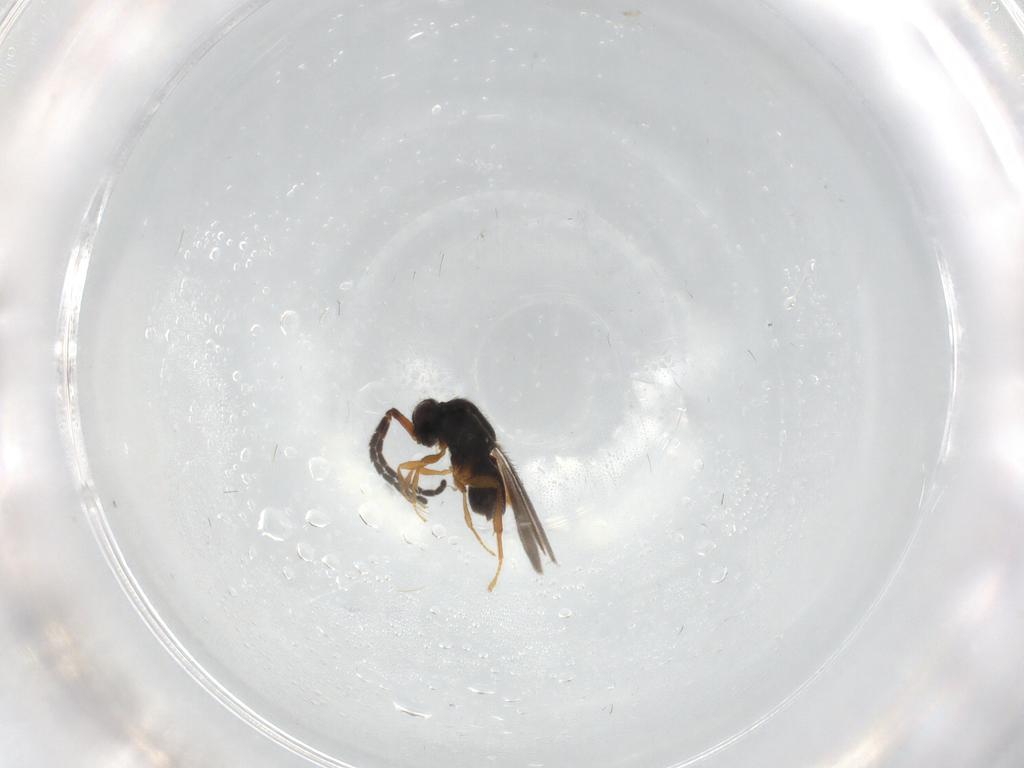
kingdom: Animalia
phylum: Arthropoda
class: Insecta
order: Hymenoptera
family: Ceraphronidae
